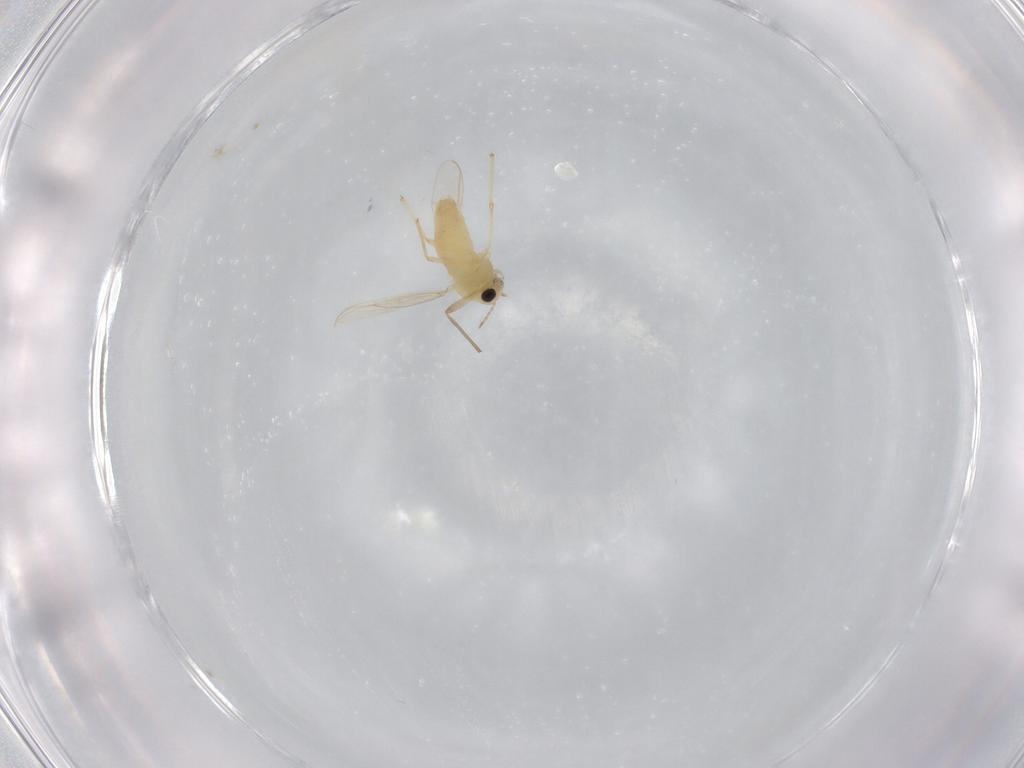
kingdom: Animalia
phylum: Arthropoda
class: Insecta
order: Diptera
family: Chironomidae
